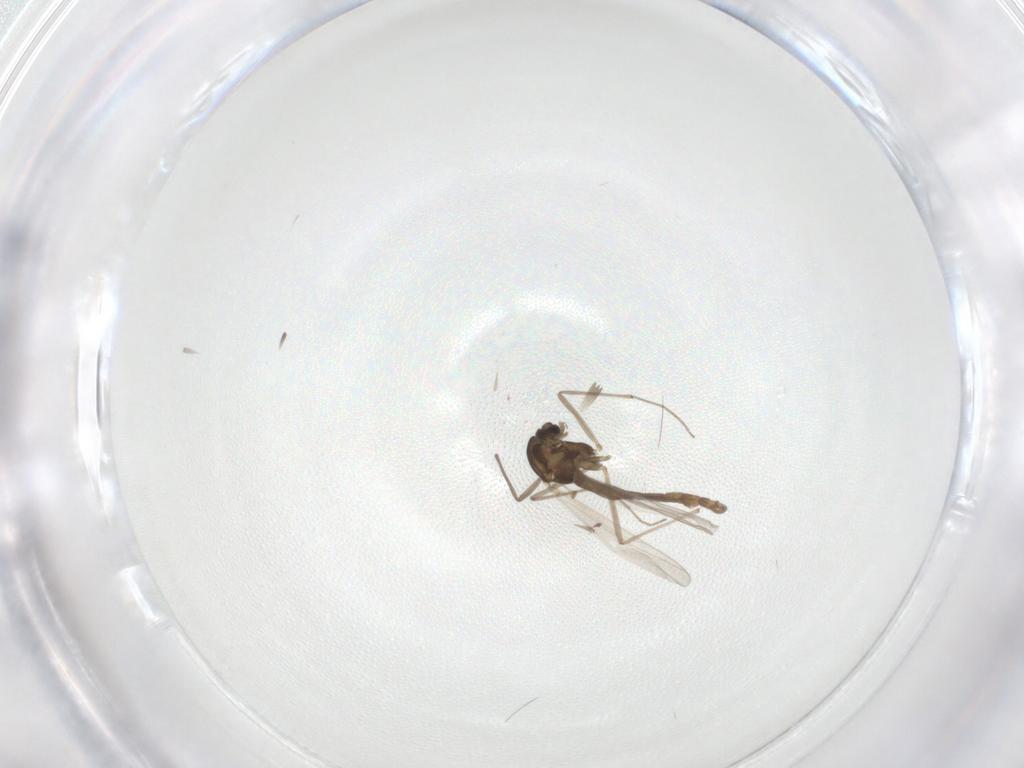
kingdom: Animalia
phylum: Arthropoda
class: Insecta
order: Diptera
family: Chironomidae
